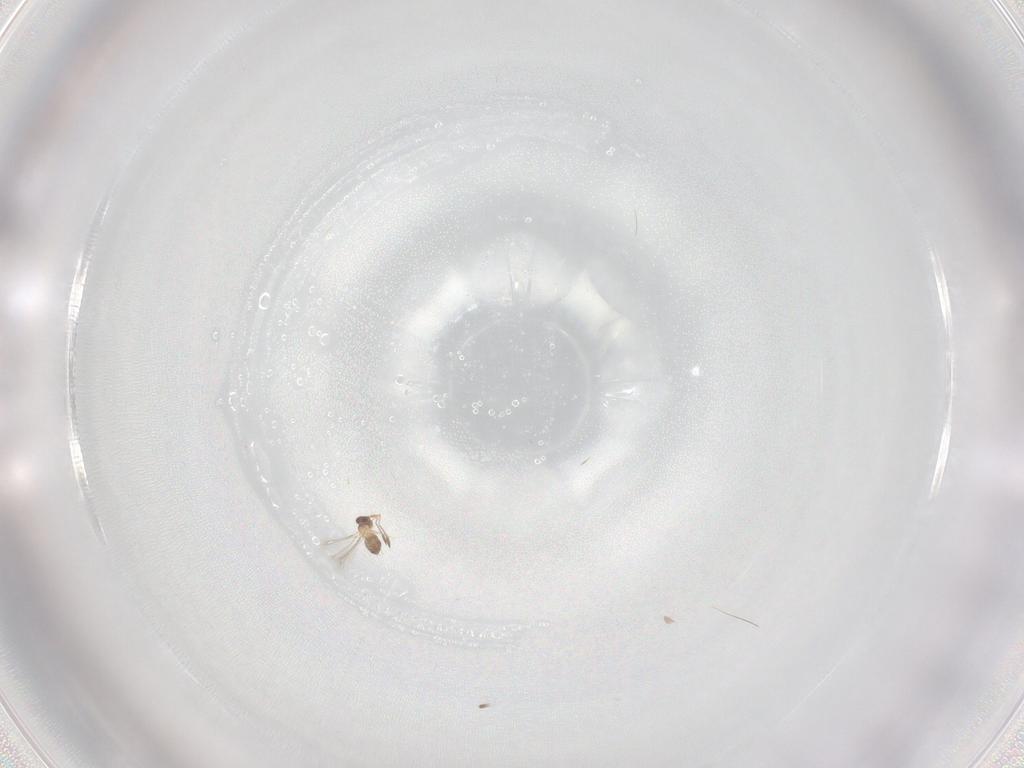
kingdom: Animalia
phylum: Arthropoda
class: Insecta
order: Hymenoptera
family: Mymaridae
